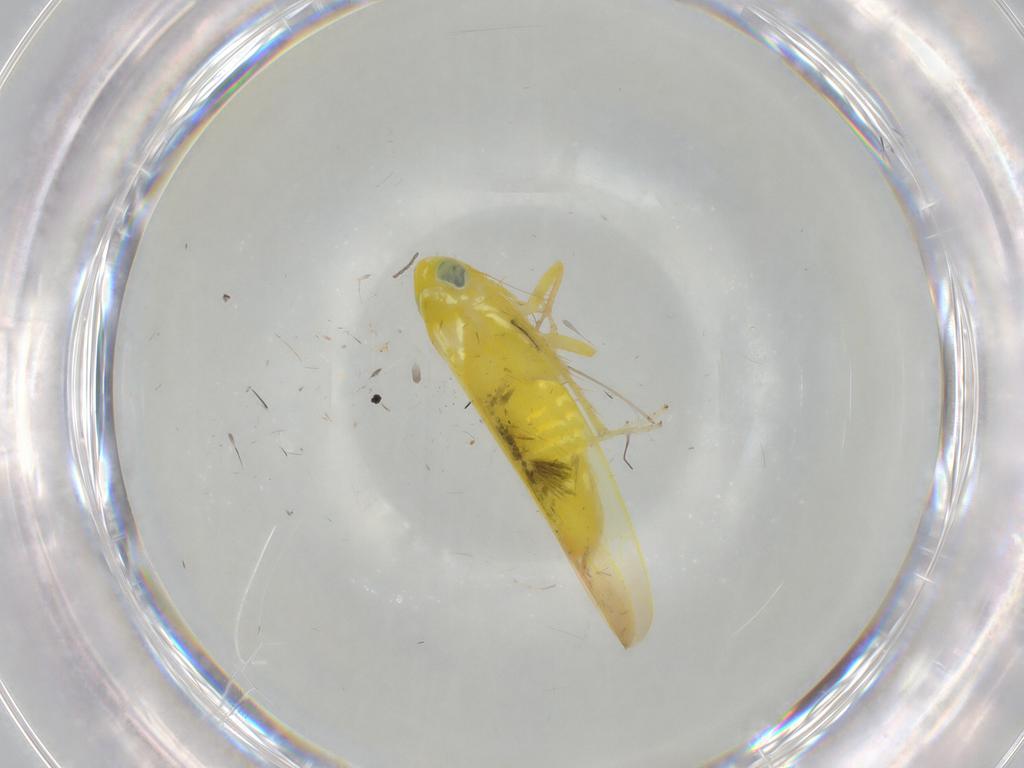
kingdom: Animalia
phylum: Arthropoda
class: Insecta
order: Hemiptera
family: Cicadellidae
